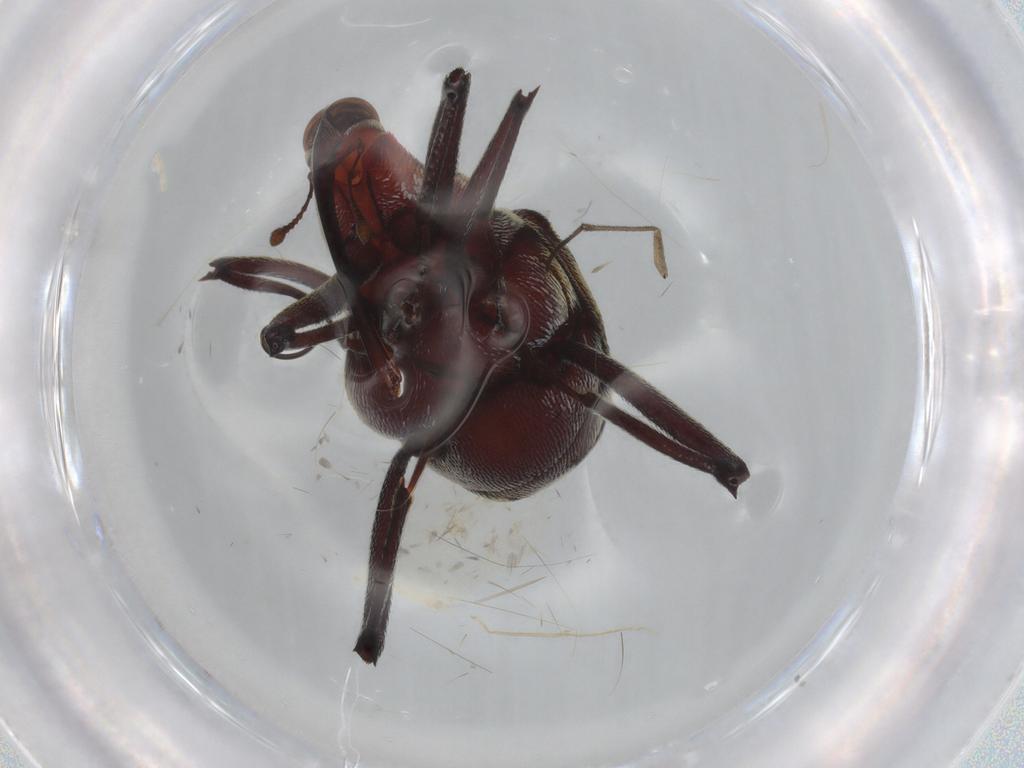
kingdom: Animalia
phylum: Arthropoda
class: Insecta
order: Coleoptera
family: Curculionidae
